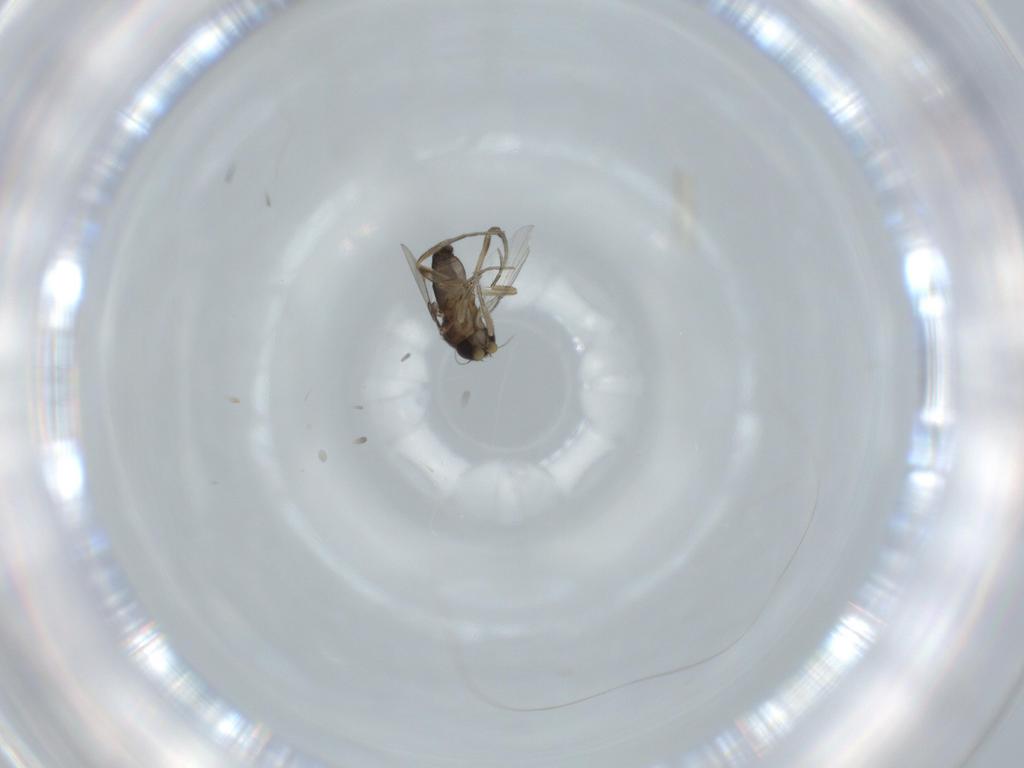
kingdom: Animalia
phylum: Arthropoda
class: Insecta
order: Diptera
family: Phoridae
